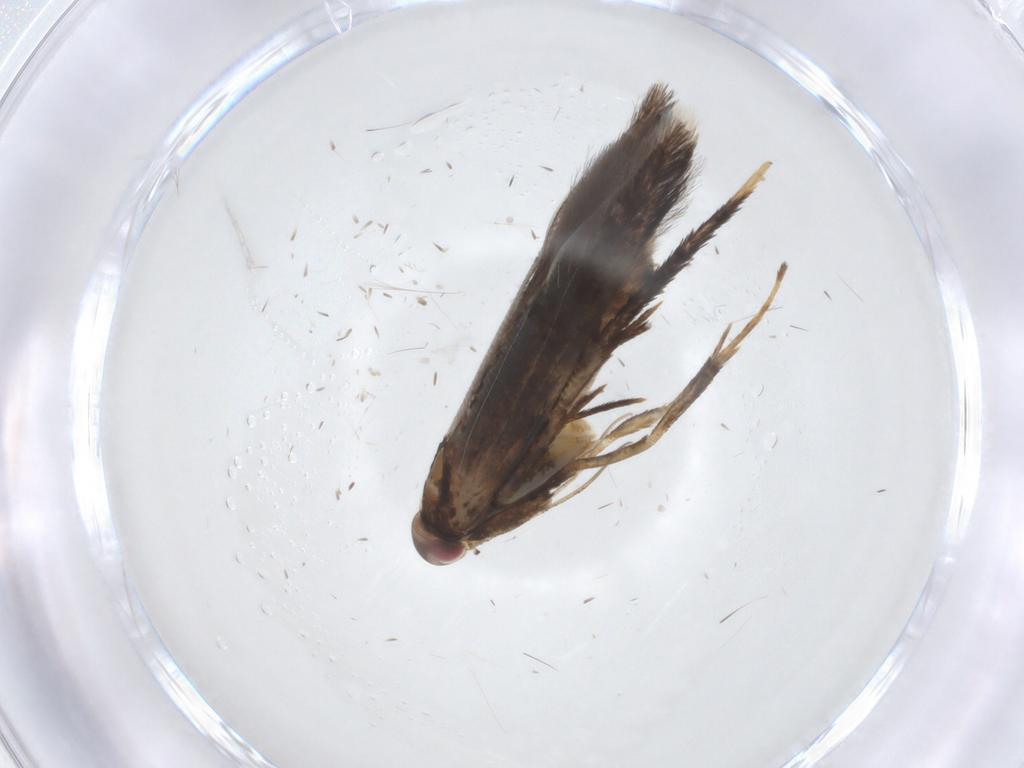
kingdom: Animalia
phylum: Arthropoda
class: Insecta
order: Lepidoptera
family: Gelechiidae
